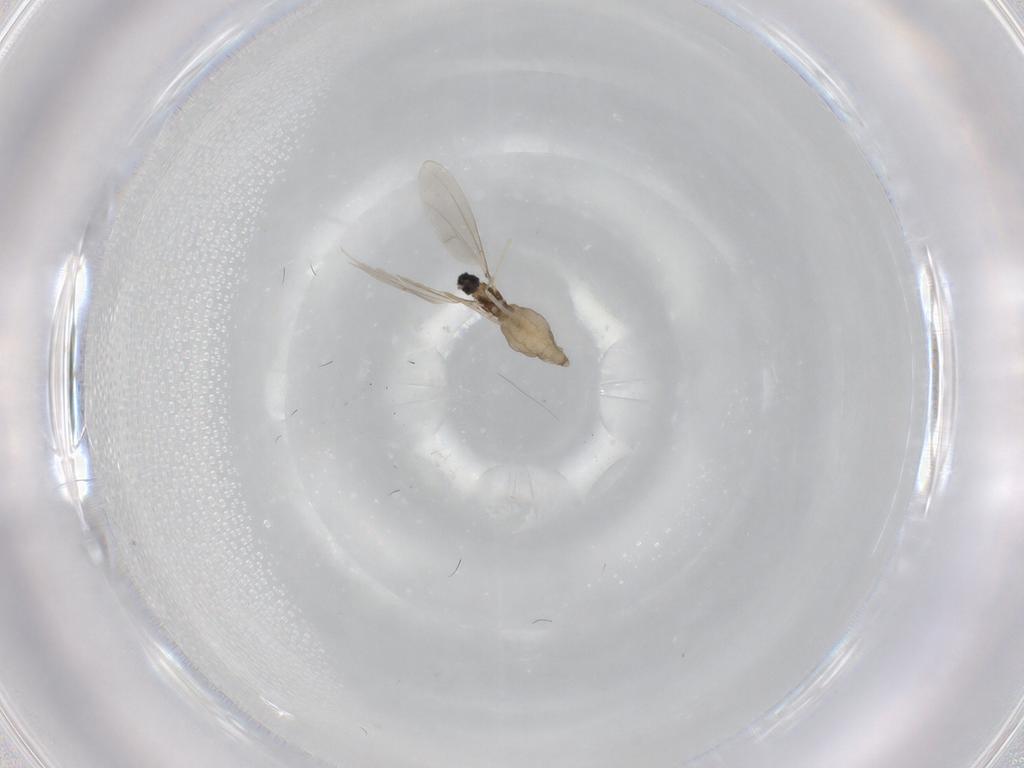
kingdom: Animalia
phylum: Arthropoda
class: Insecta
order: Diptera
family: Cecidomyiidae
